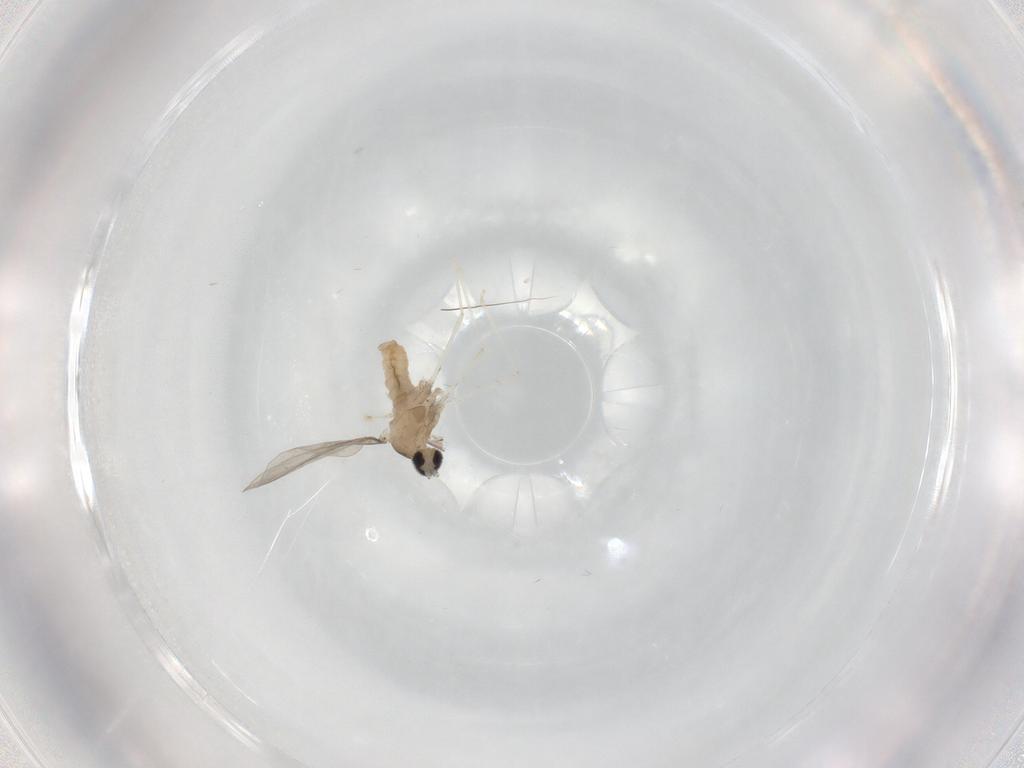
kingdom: Animalia
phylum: Arthropoda
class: Insecta
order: Diptera
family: Cecidomyiidae
